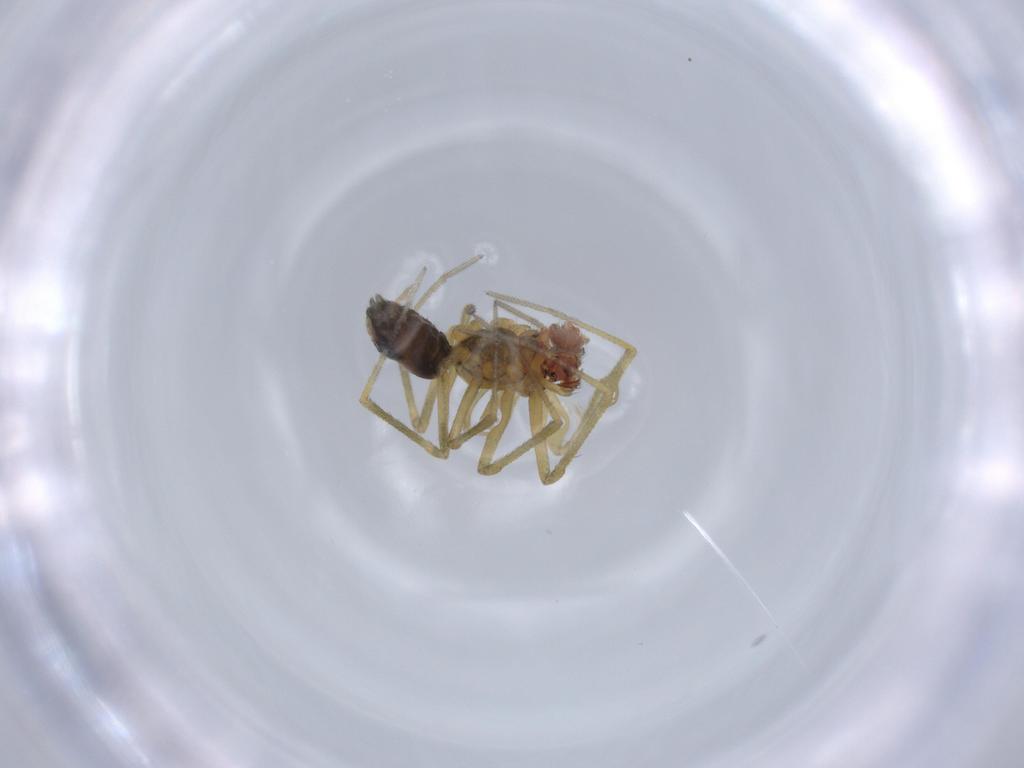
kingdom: Animalia
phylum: Arthropoda
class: Arachnida
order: Araneae
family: Linyphiidae
